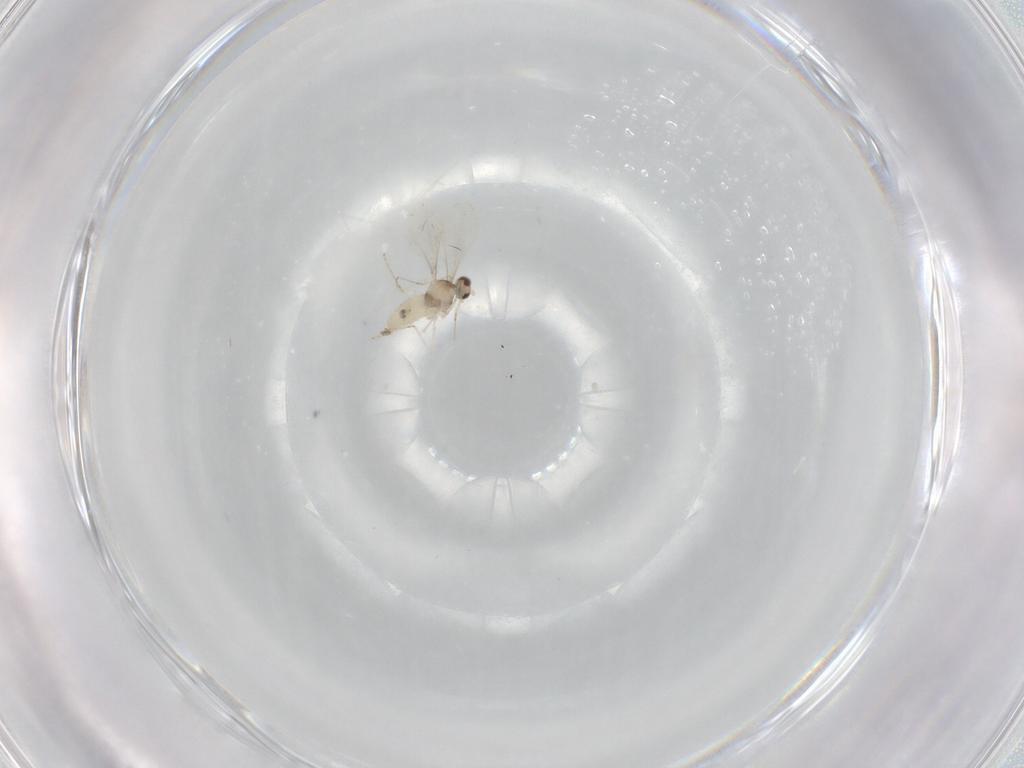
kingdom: Animalia
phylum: Arthropoda
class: Insecta
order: Diptera
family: Cecidomyiidae
